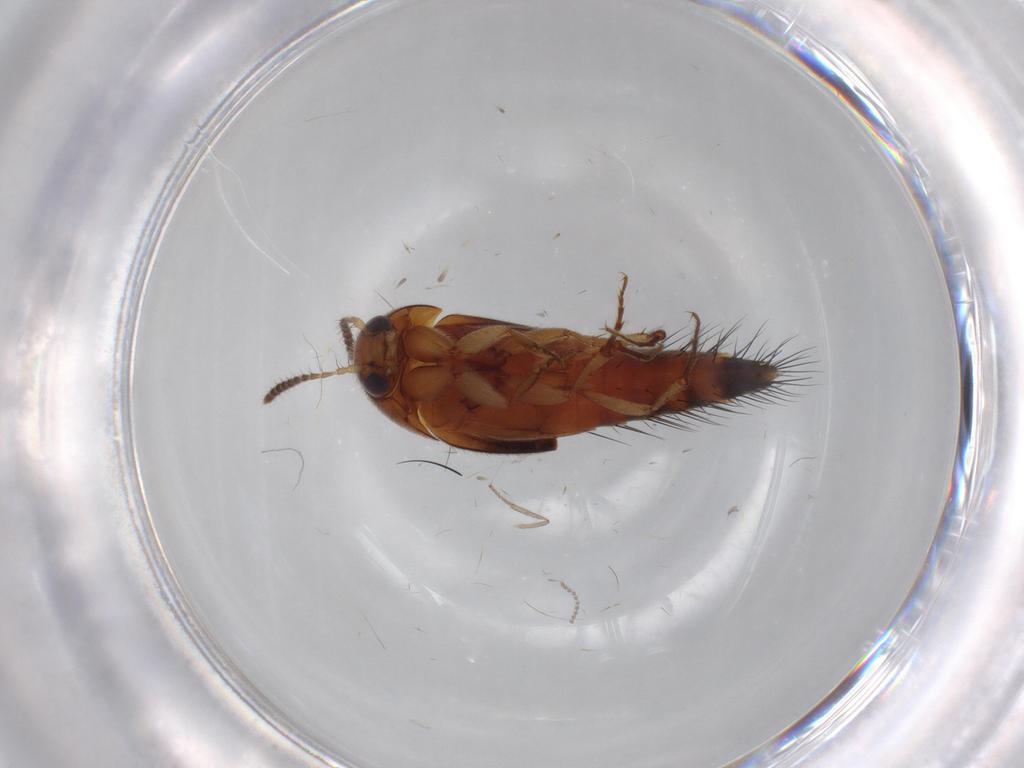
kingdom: Animalia
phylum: Arthropoda
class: Insecta
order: Coleoptera
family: Staphylinidae
